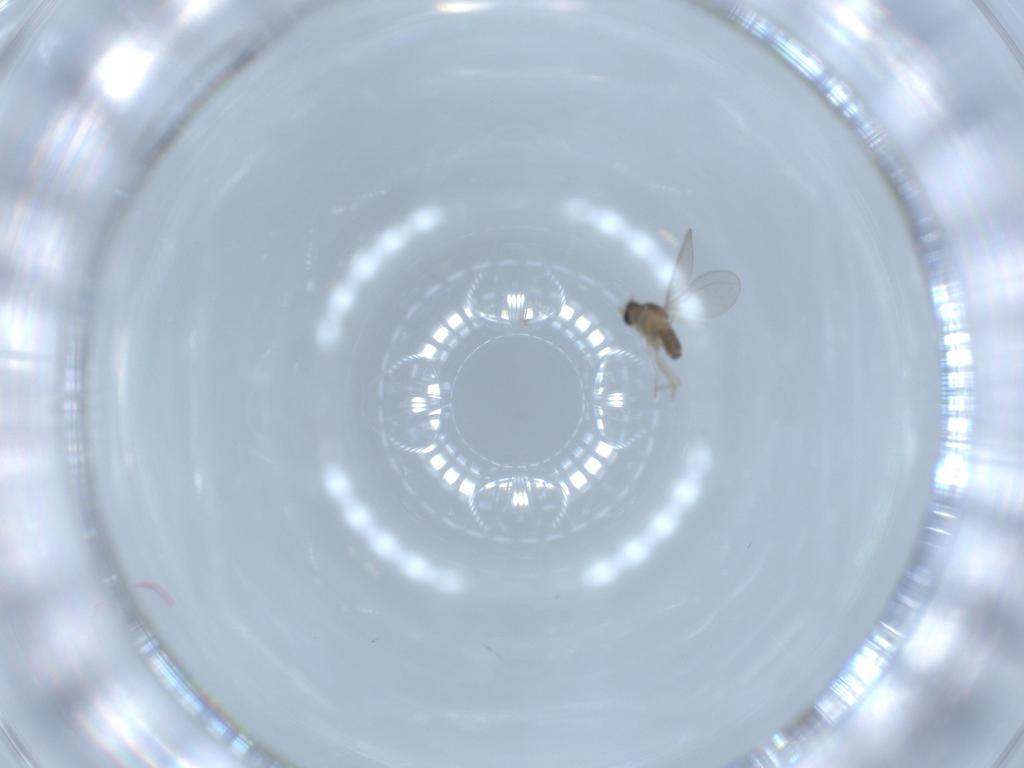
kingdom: Animalia
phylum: Arthropoda
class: Insecta
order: Diptera
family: Cecidomyiidae
